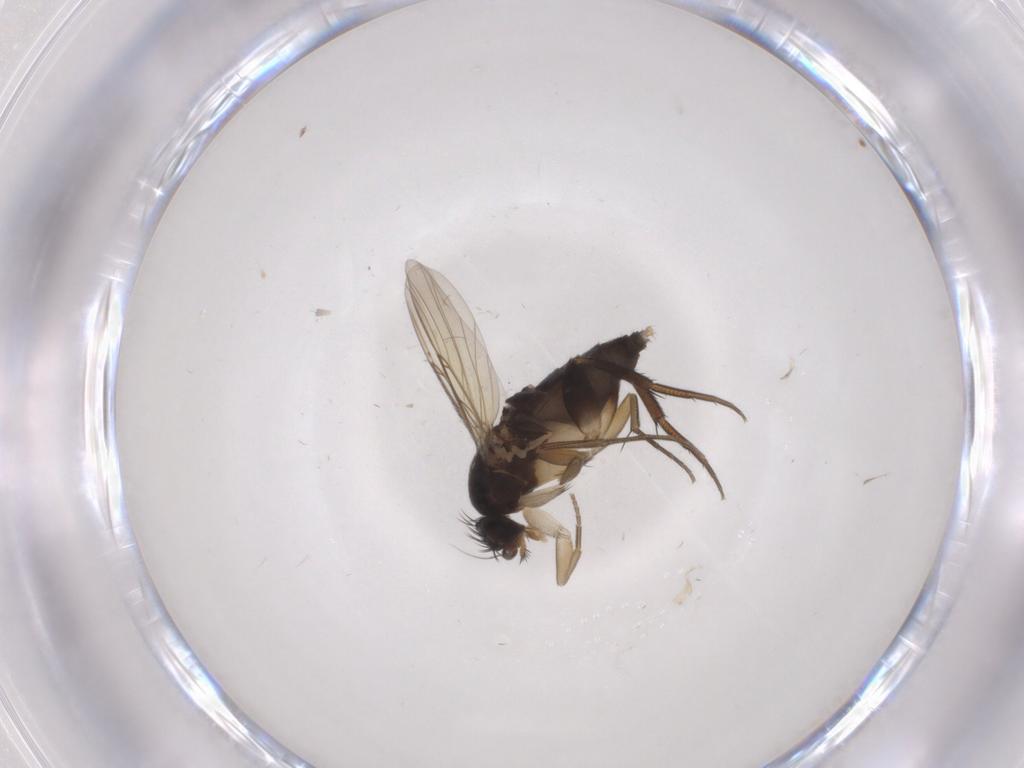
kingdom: Animalia
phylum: Arthropoda
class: Insecta
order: Diptera
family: Phoridae
